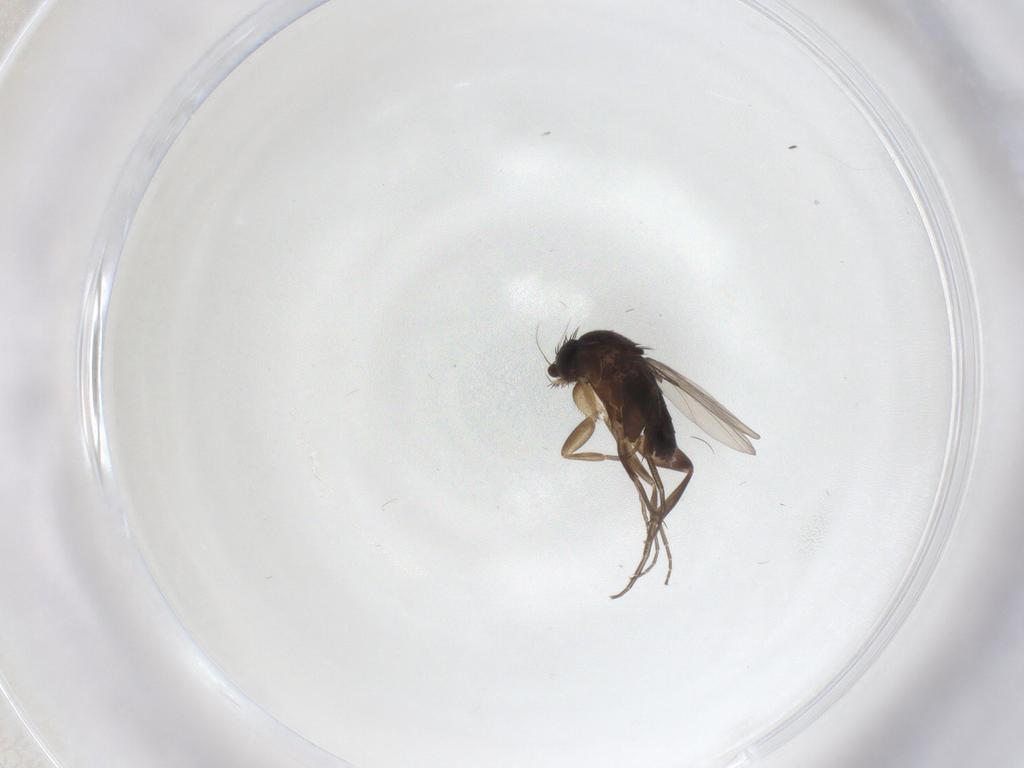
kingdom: Animalia
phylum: Arthropoda
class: Insecta
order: Diptera
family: Phoridae
